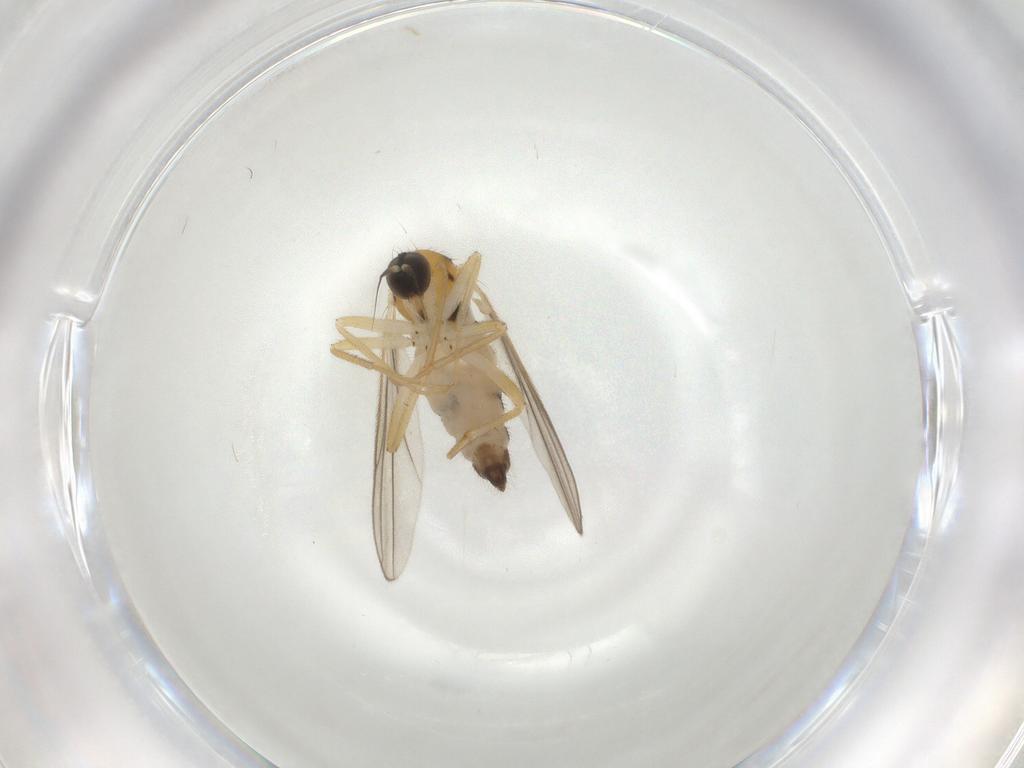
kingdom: Animalia
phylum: Arthropoda
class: Insecta
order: Diptera
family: Hybotidae
